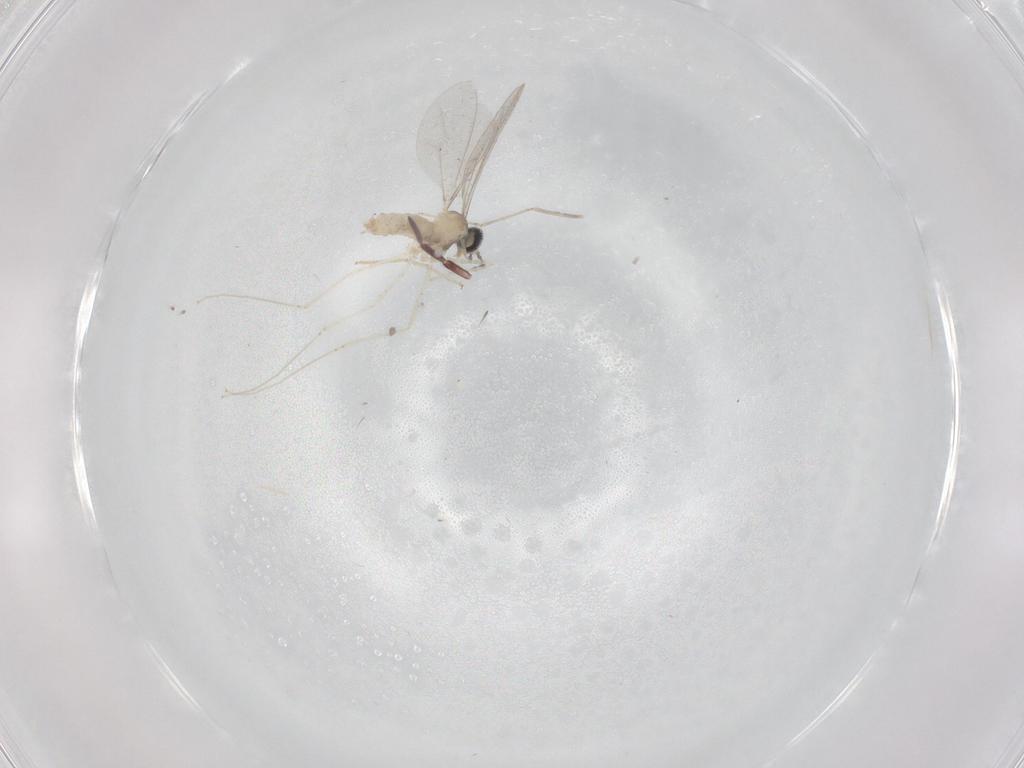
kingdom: Animalia
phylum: Arthropoda
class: Insecta
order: Diptera
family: Cecidomyiidae
